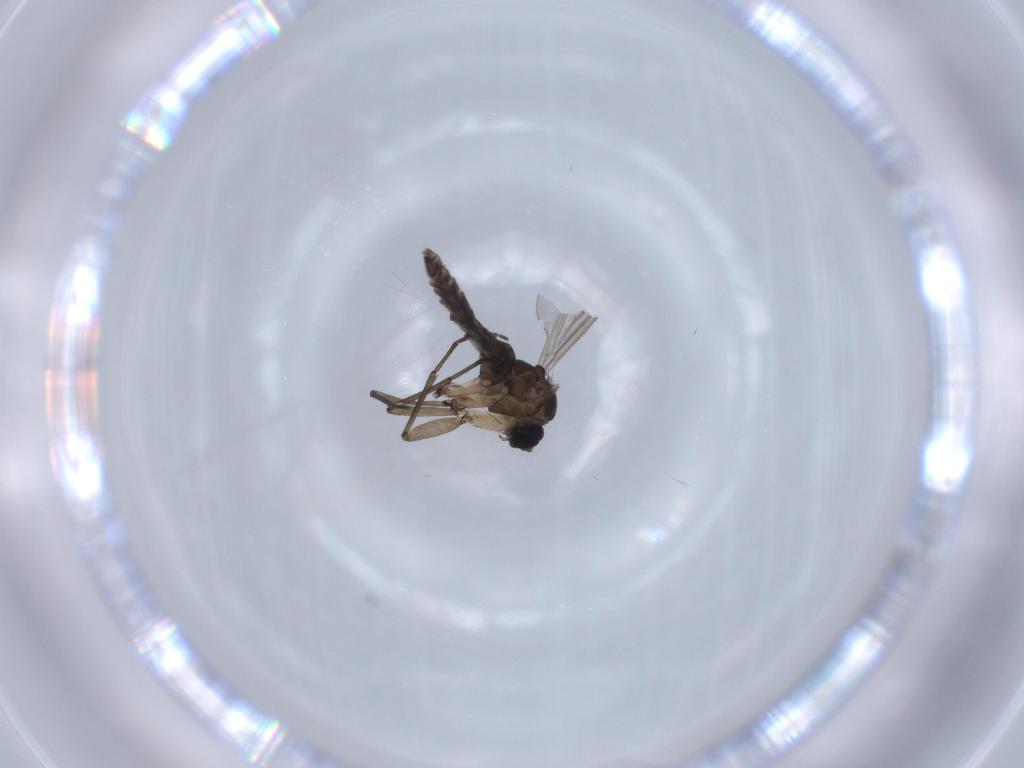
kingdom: Animalia
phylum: Arthropoda
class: Insecta
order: Diptera
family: Sciaridae
